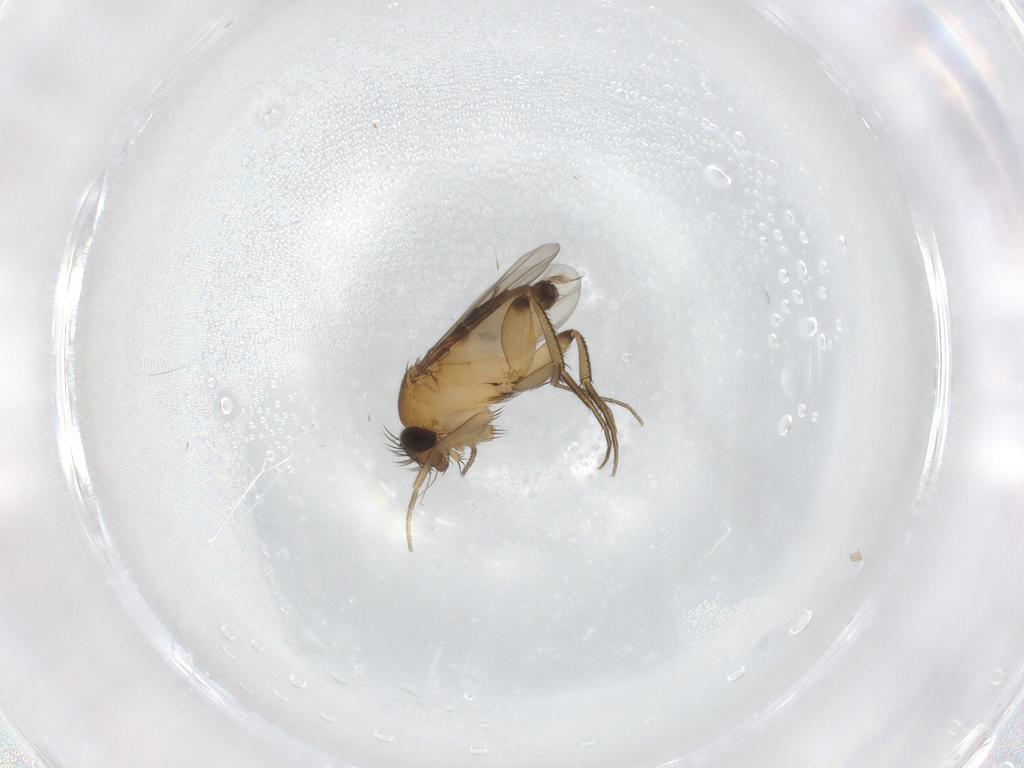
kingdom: Animalia
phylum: Arthropoda
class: Insecta
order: Diptera
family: Phoridae
